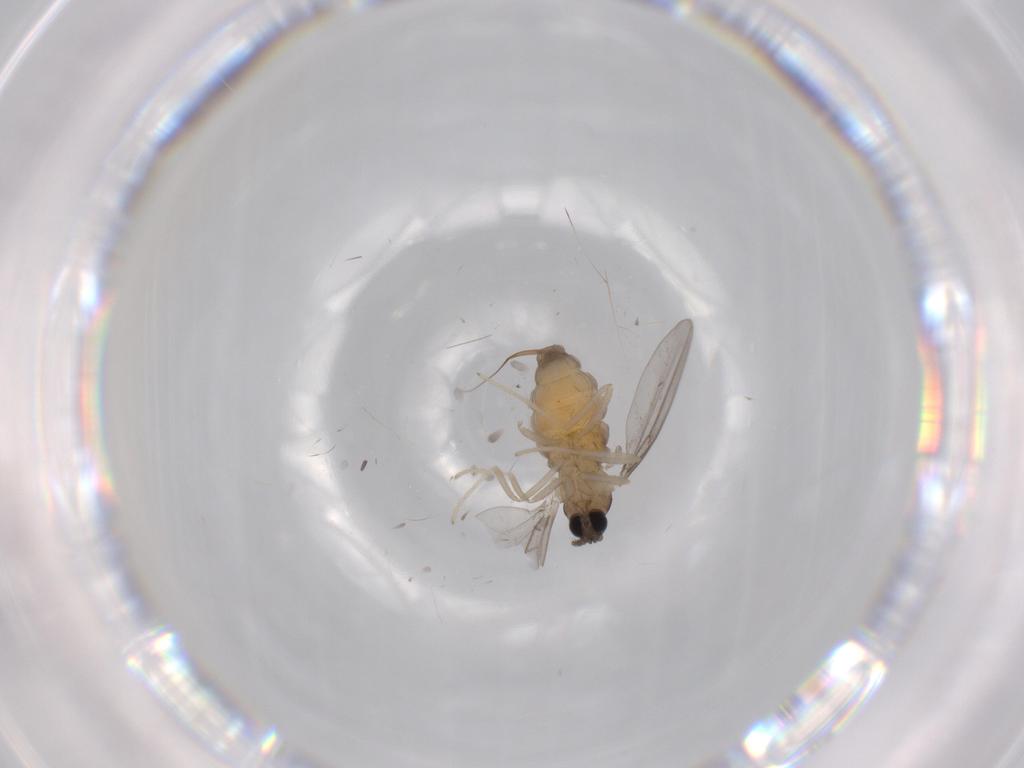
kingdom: Animalia
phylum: Arthropoda
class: Insecta
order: Diptera
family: Cecidomyiidae
